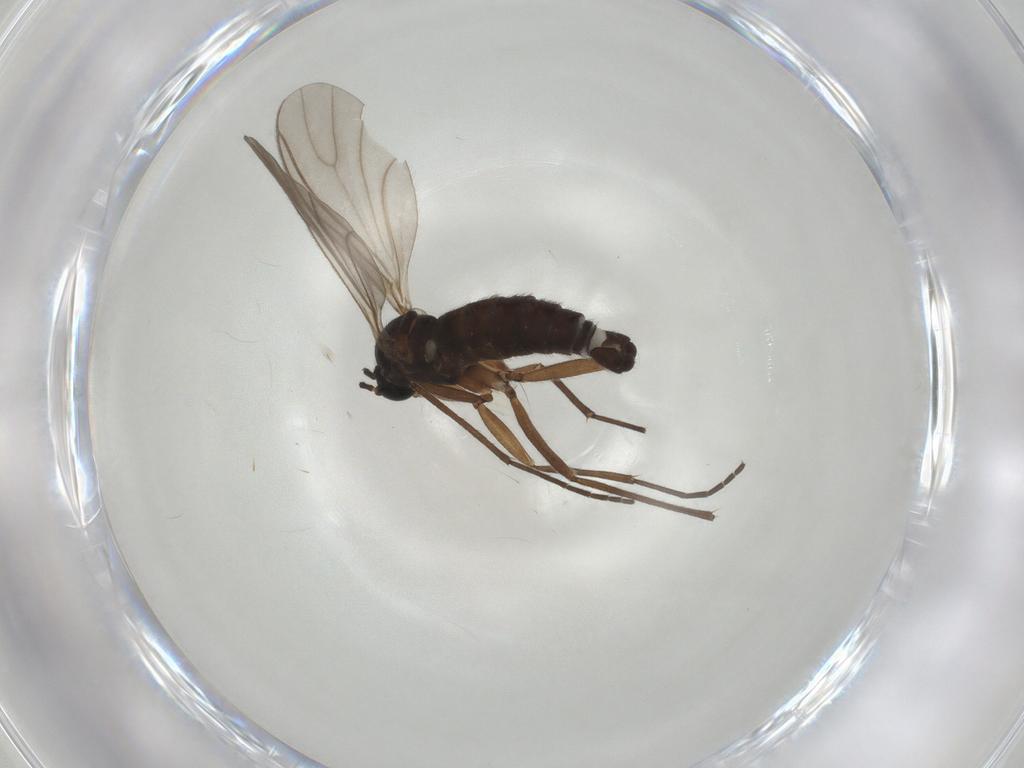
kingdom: Animalia
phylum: Arthropoda
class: Insecta
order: Diptera
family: Sciaridae
